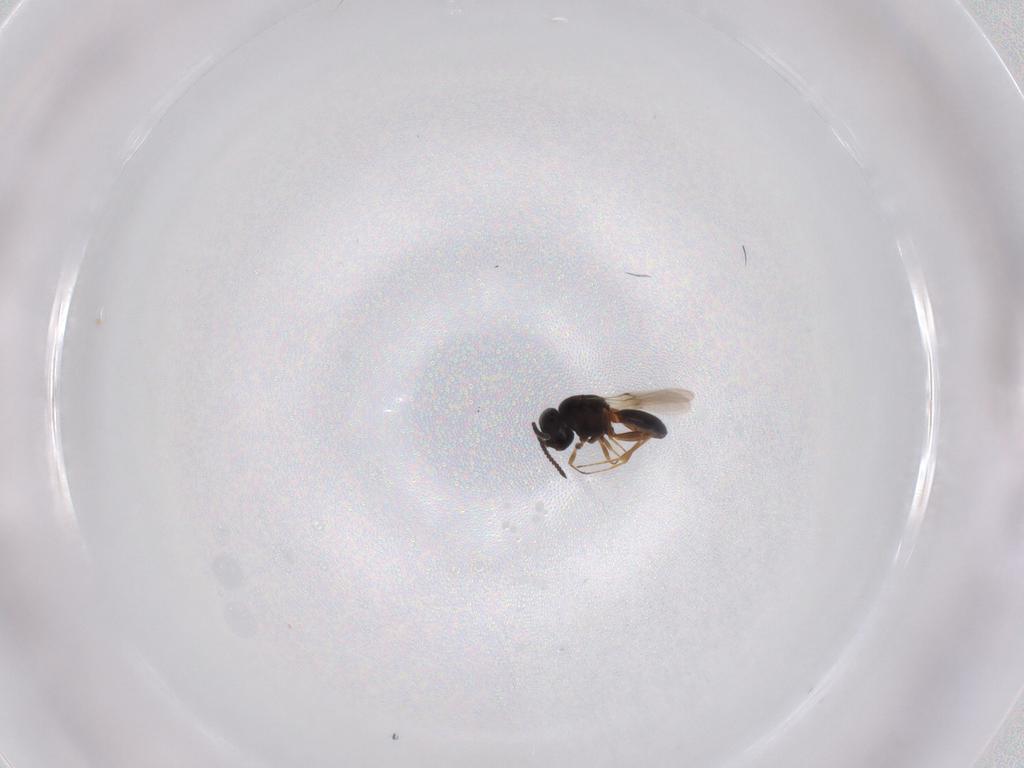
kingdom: Animalia
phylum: Arthropoda
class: Insecta
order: Hymenoptera
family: Scelionidae
